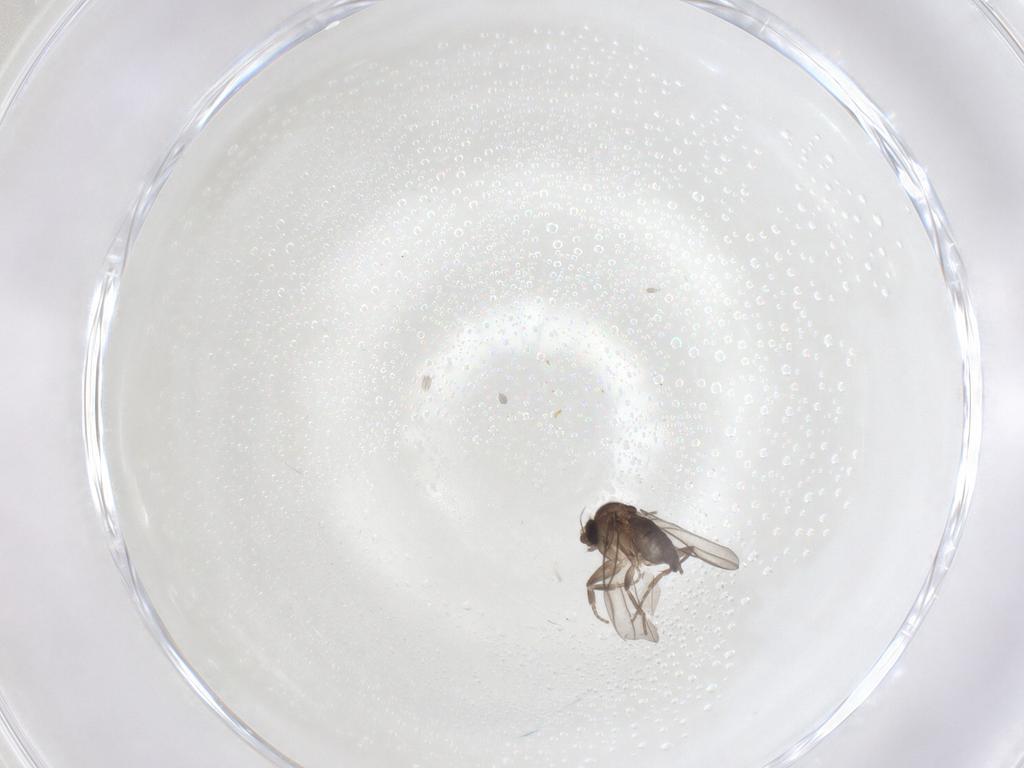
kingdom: Animalia
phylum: Arthropoda
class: Insecta
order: Diptera
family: Phoridae
